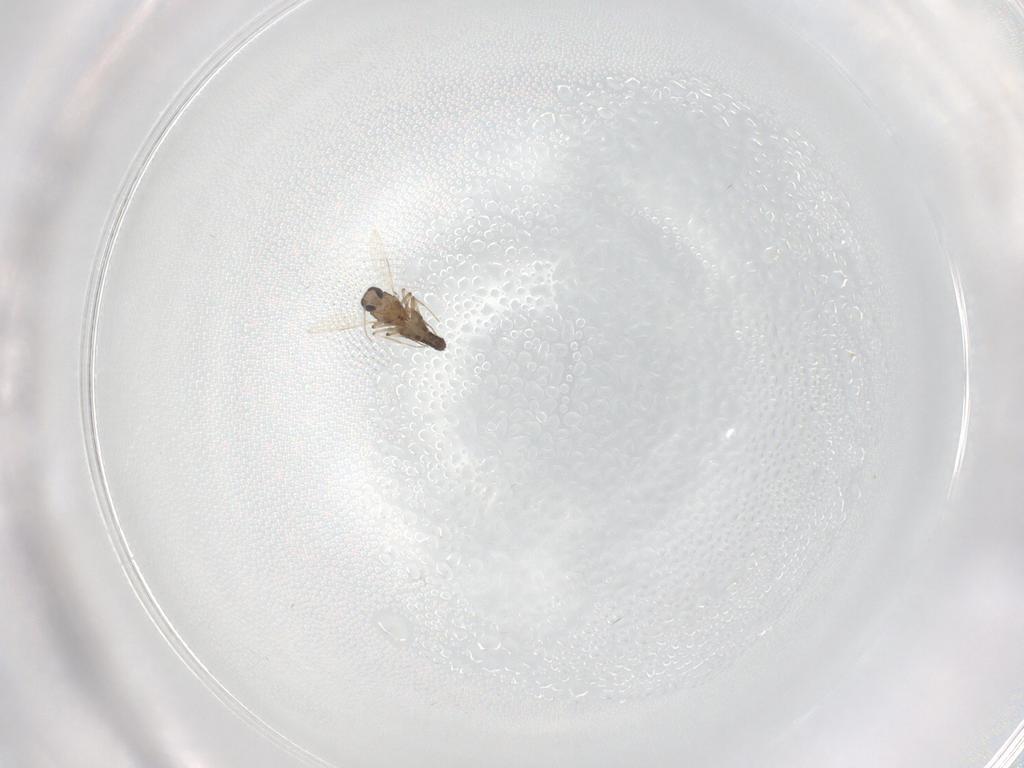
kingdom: Animalia
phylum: Arthropoda
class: Insecta
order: Diptera
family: Ceratopogonidae
